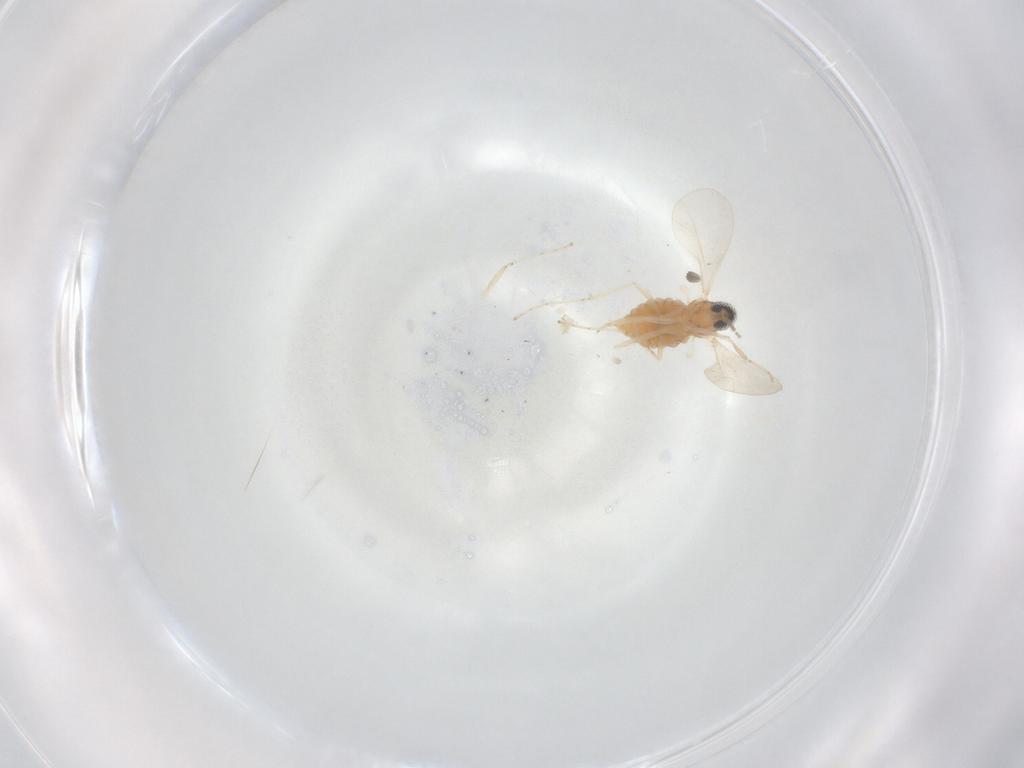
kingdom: Animalia
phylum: Arthropoda
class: Insecta
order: Diptera
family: Cecidomyiidae
